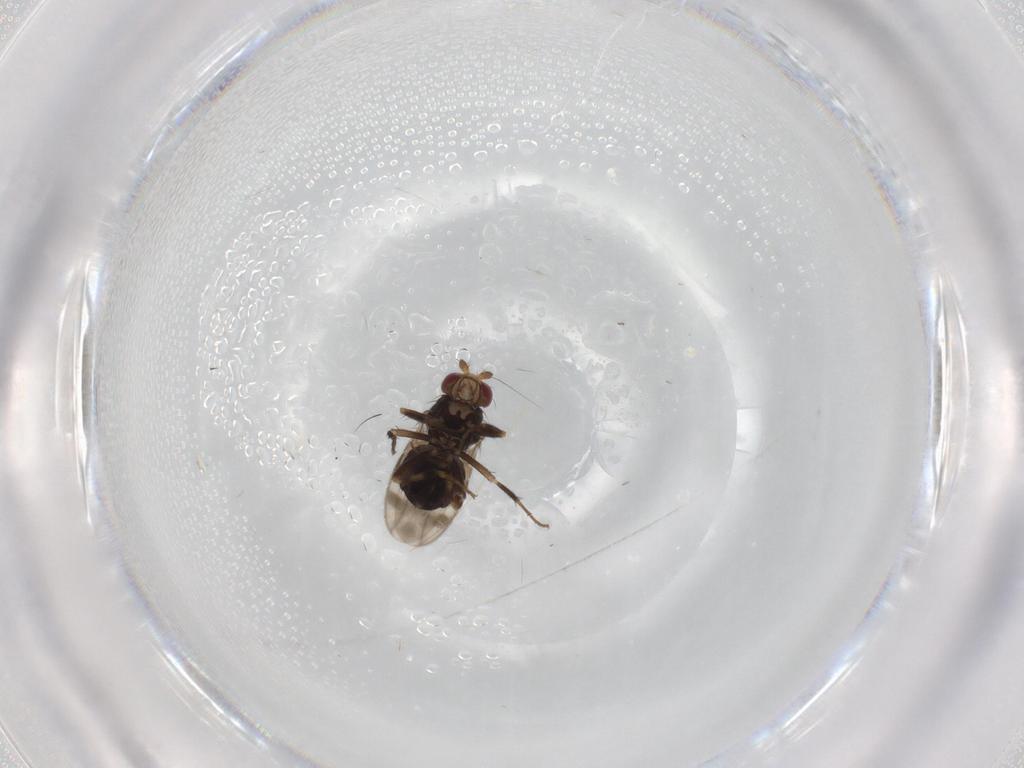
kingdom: Animalia
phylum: Arthropoda
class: Insecta
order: Diptera
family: Sphaeroceridae
